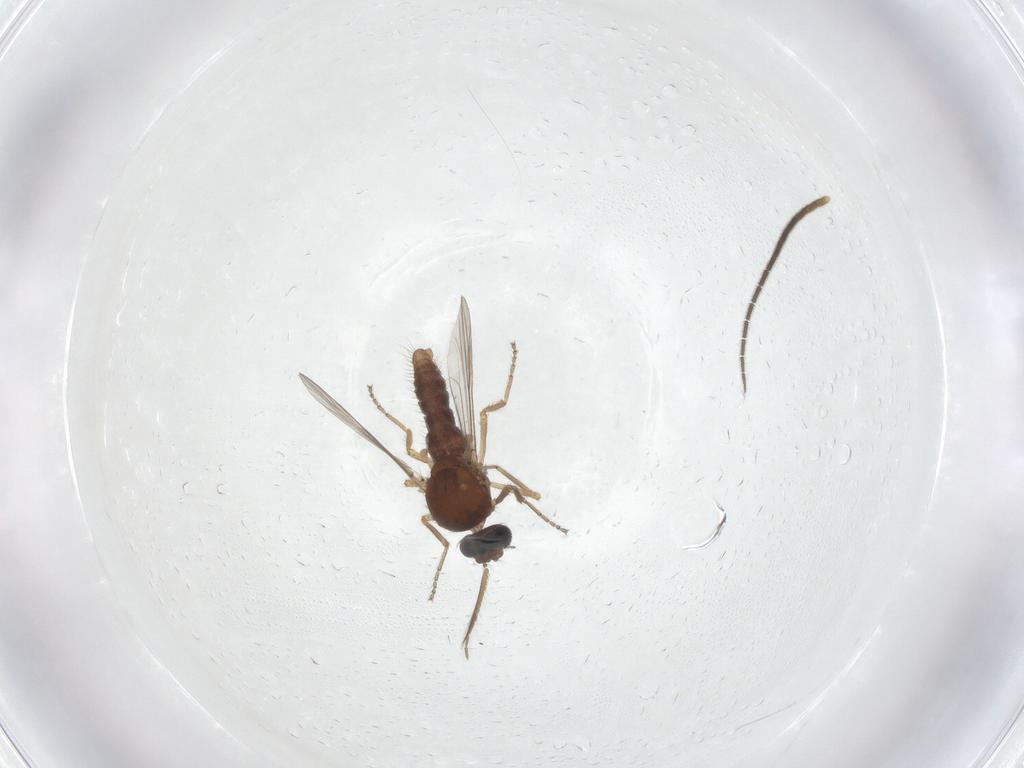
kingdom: Animalia
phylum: Arthropoda
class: Insecta
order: Diptera
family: Ceratopogonidae
